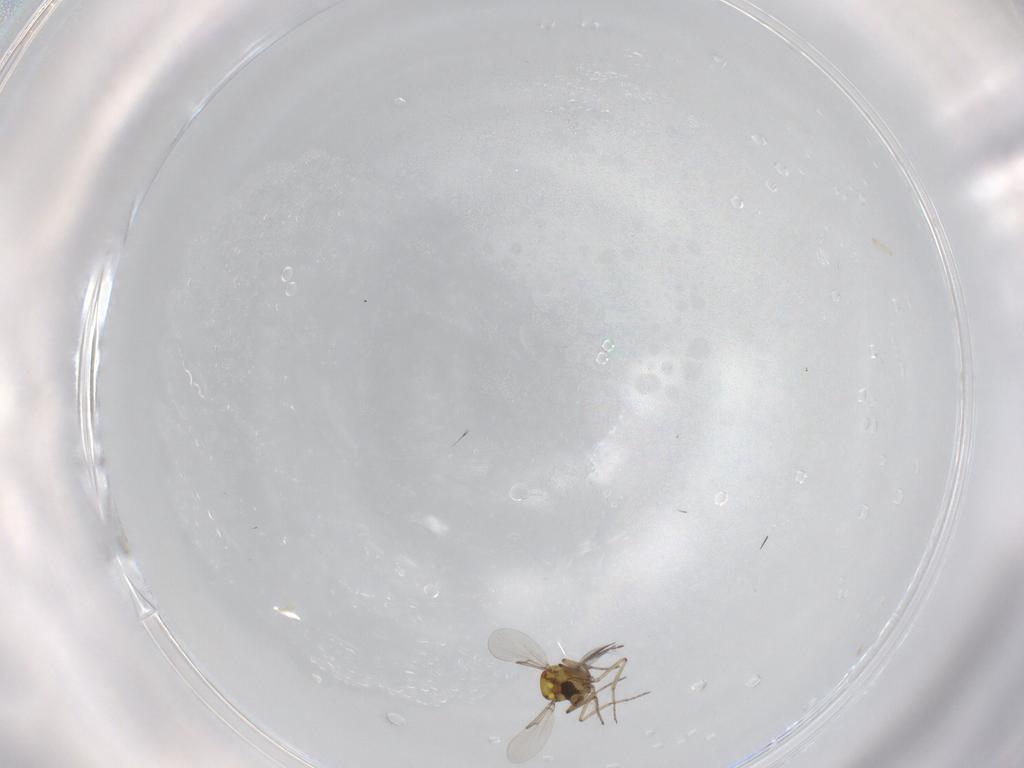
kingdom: Animalia
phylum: Arthropoda
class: Insecta
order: Diptera
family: Ceratopogonidae
